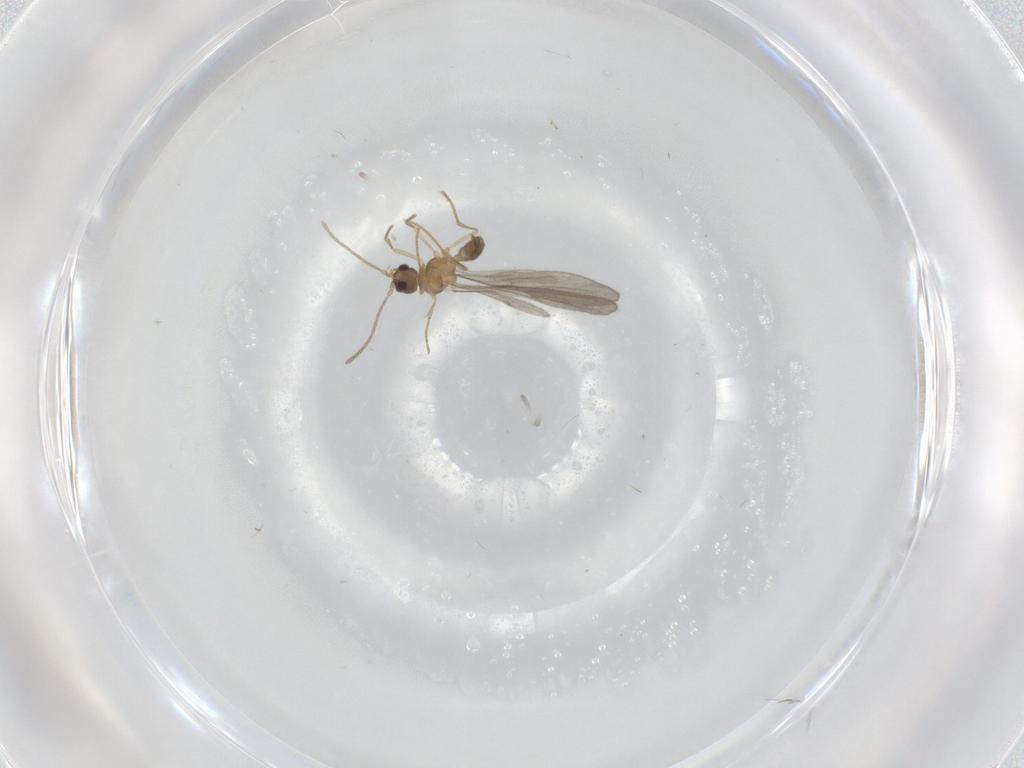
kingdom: Animalia
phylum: Arthropoda
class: Insecta
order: Hymenoptera
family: Formicidae
